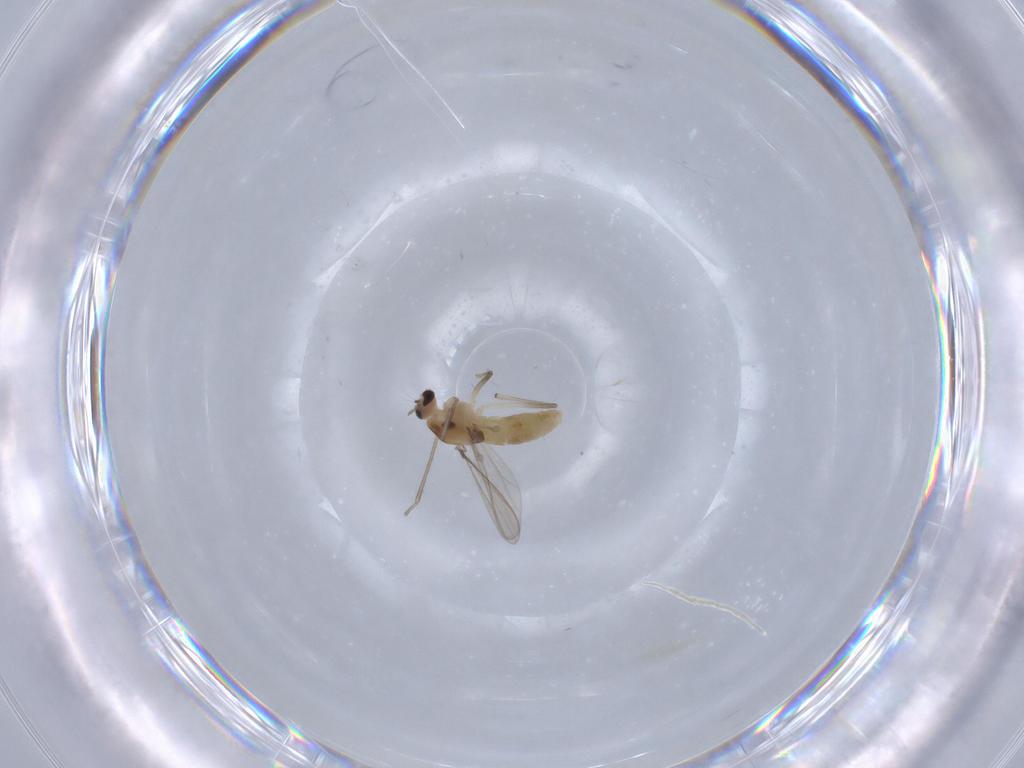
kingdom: Animalia
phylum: Arthropoda
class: Insecta
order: Diptera
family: Chironomidae
